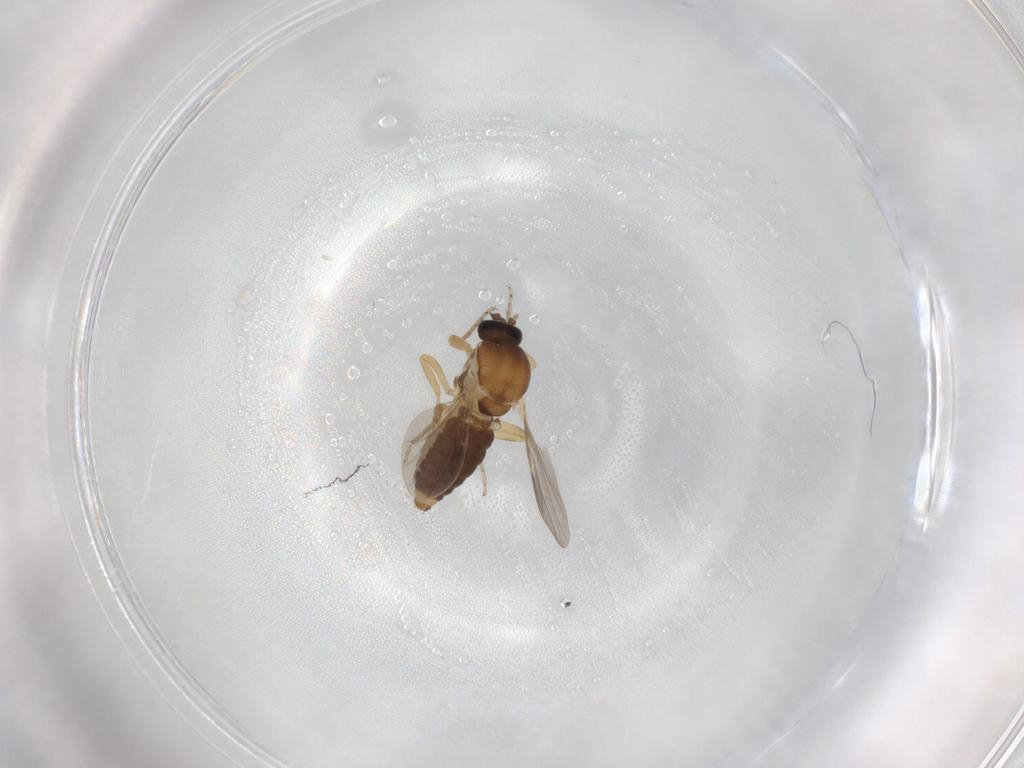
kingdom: Animalia
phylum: Arthropoda
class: Insecta
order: Diptera
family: Ceratopogonidae
